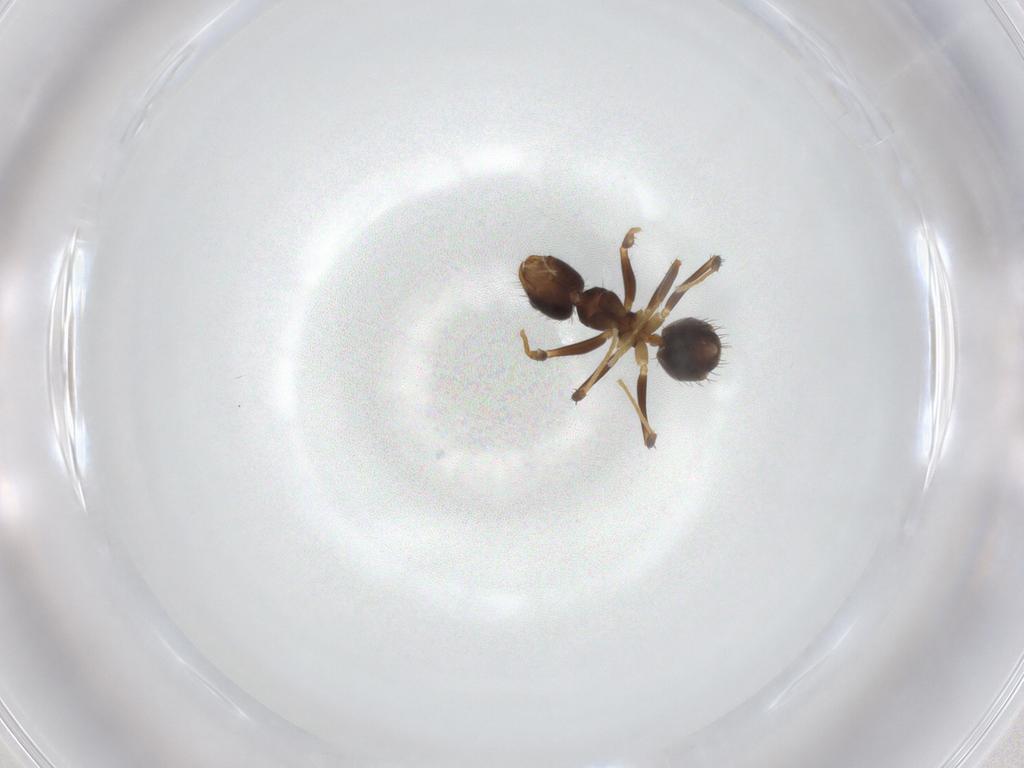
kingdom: Animalia
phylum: Arthropoda
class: Insecta
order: Hymenoptera
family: Formicidae
